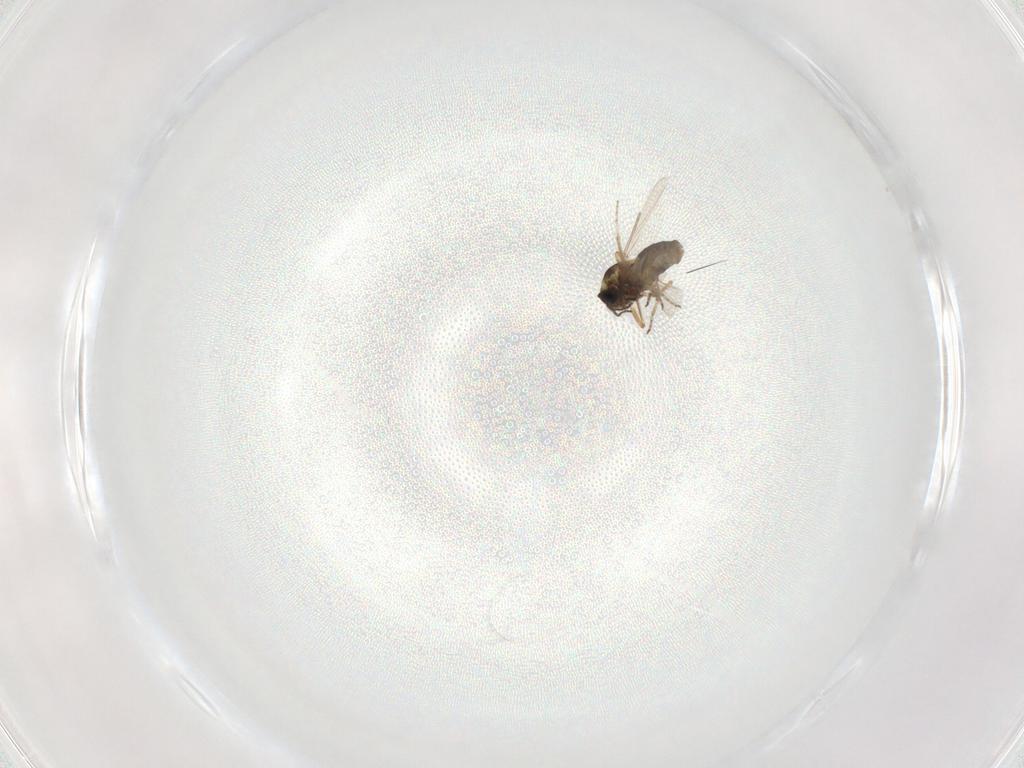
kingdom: Animalia
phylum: Arthropoda
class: Insecta
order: Diptera
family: Ceratopogonidae
